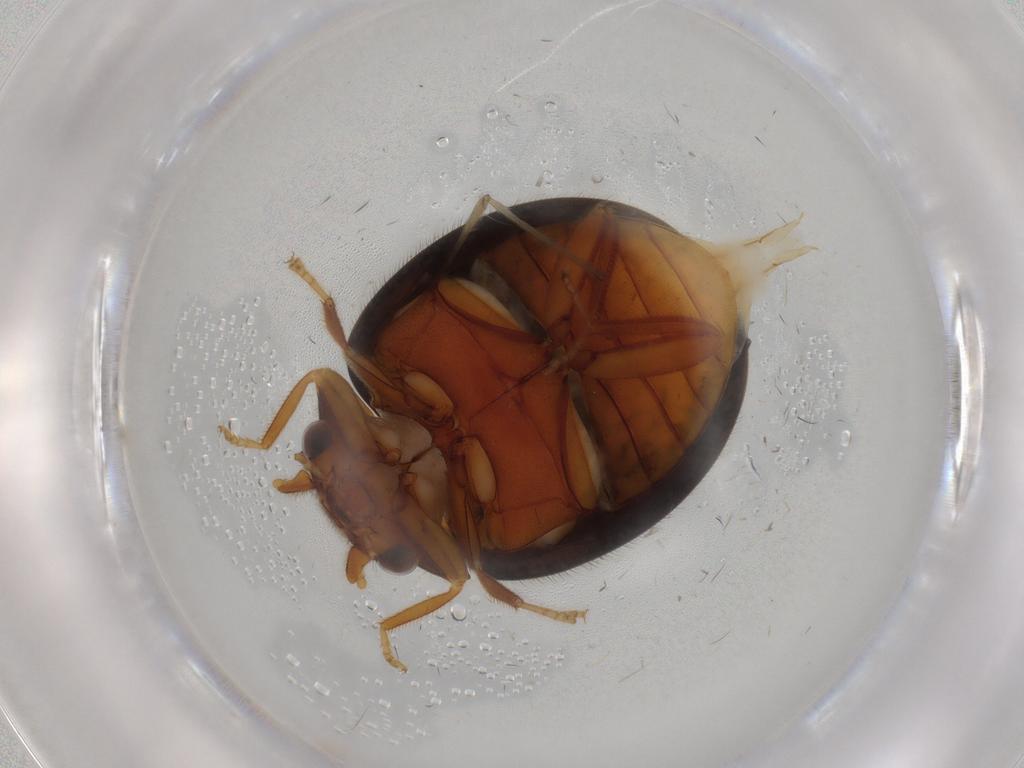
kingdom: Animalia
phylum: Arthropoda
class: Insecta
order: Coleoptera
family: Scirtidae
